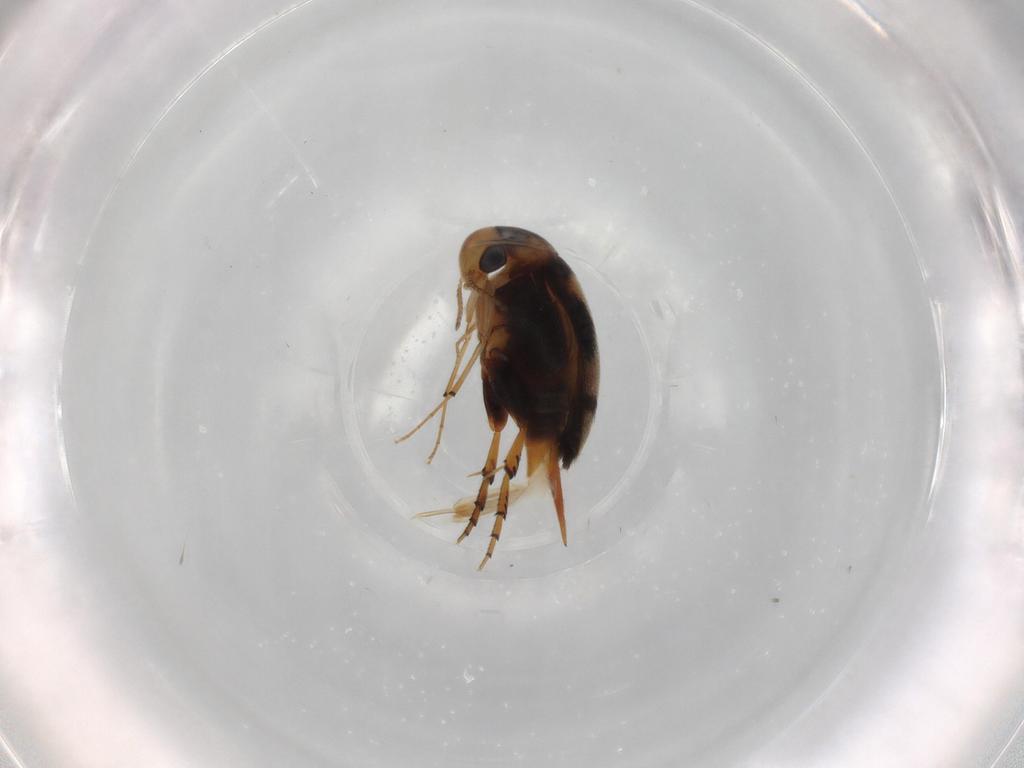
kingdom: Animalia
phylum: Arthropoda
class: Insecta
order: Coleoptera
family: Mordellidae
